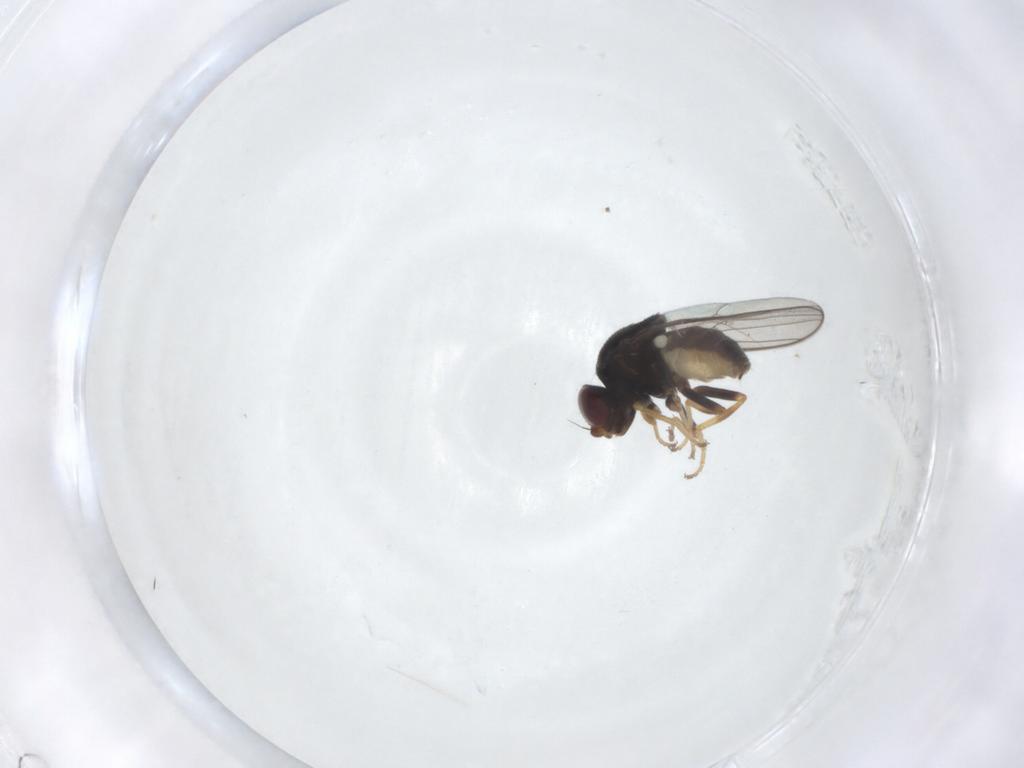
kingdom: Animalia
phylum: Arthropoda
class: Insecta
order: Diptera
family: Chloropidae
